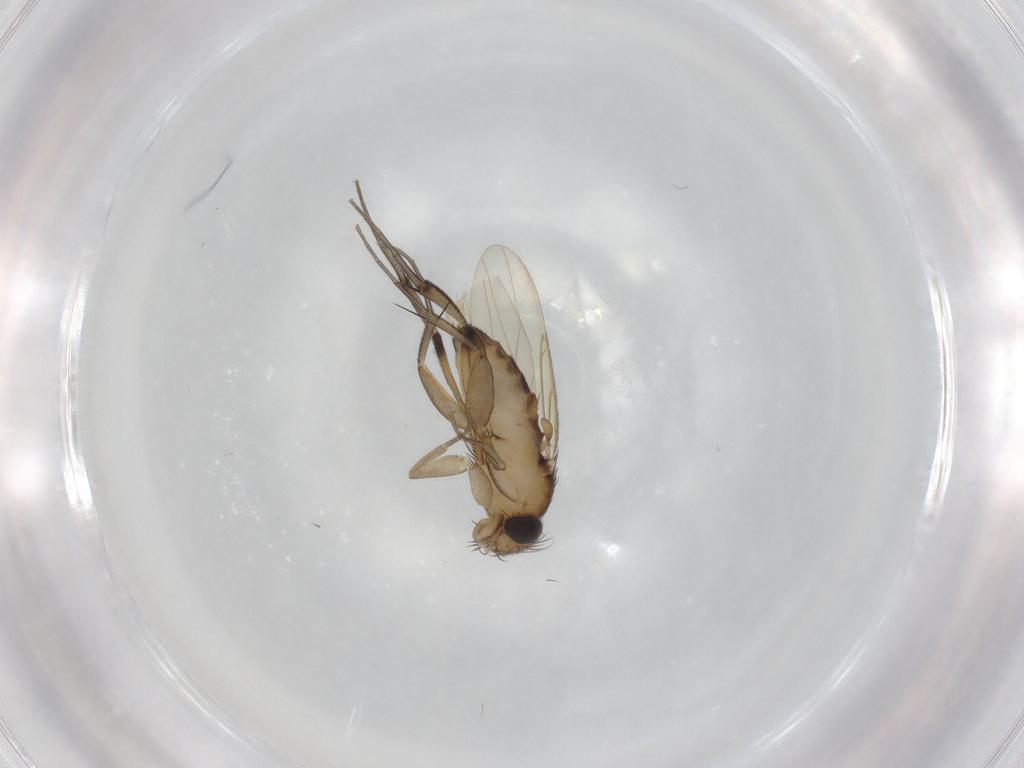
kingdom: Animalia
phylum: Arthropoda
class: Insecta
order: Diptera
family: Phoridae
